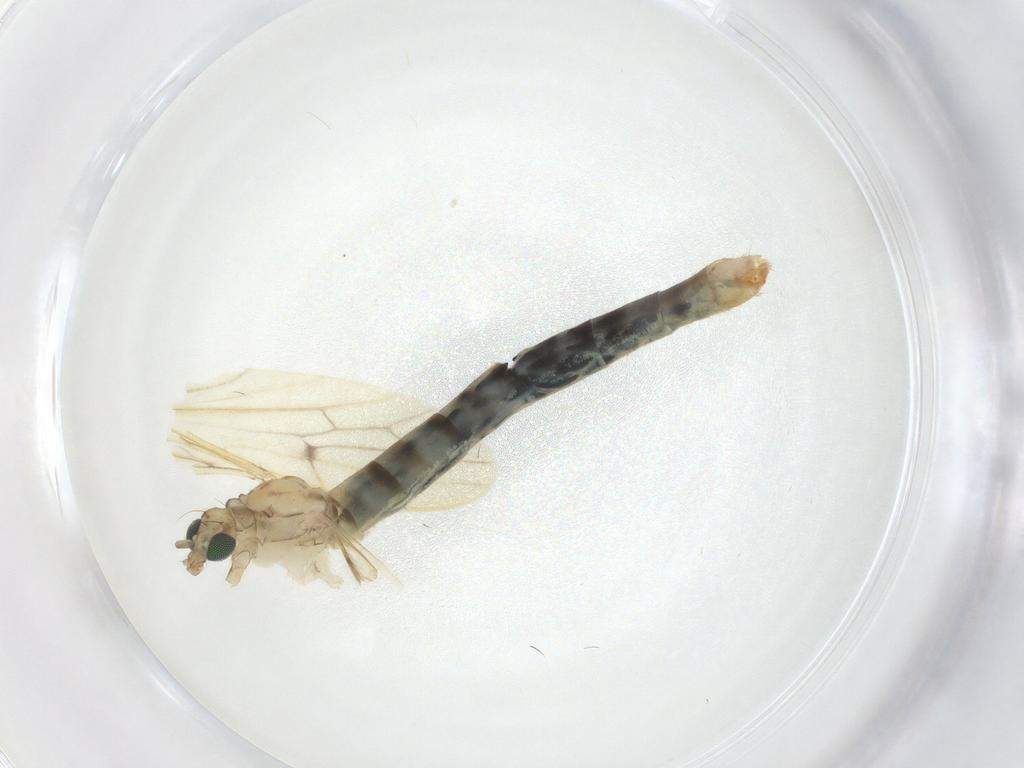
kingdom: Animalia
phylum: Arthropoda
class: Insecta
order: Diptera
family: Limoniidae
